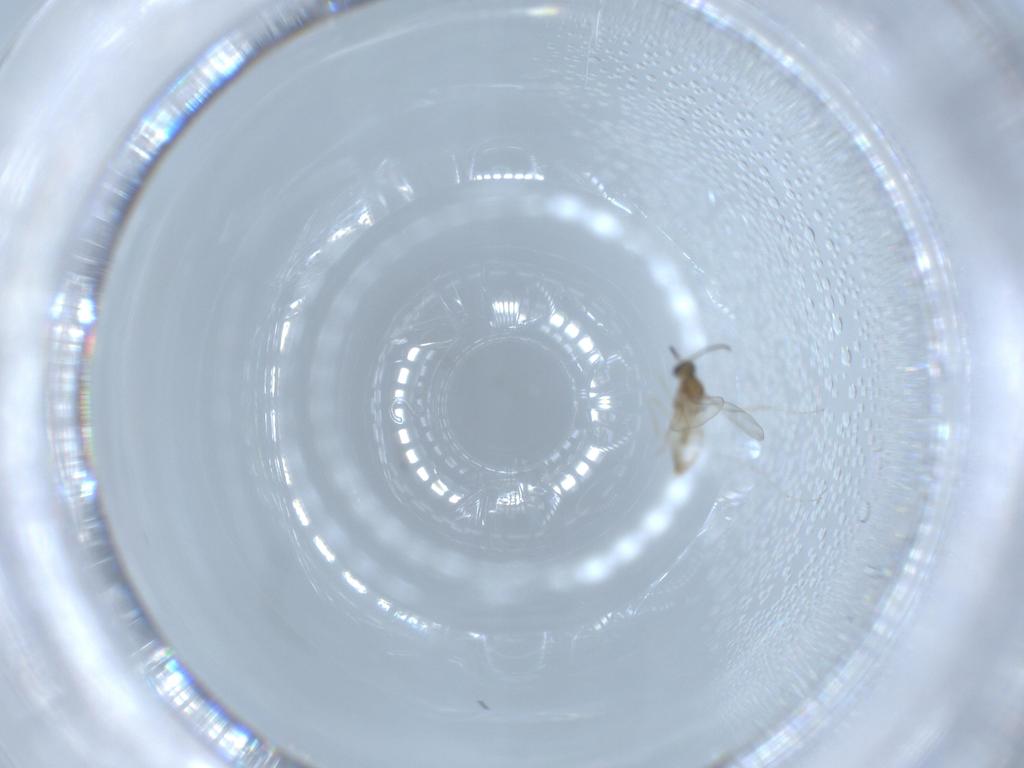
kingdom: Animalia
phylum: Arthropoda
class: Insecta
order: Diptera
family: Cecidomyiidae
